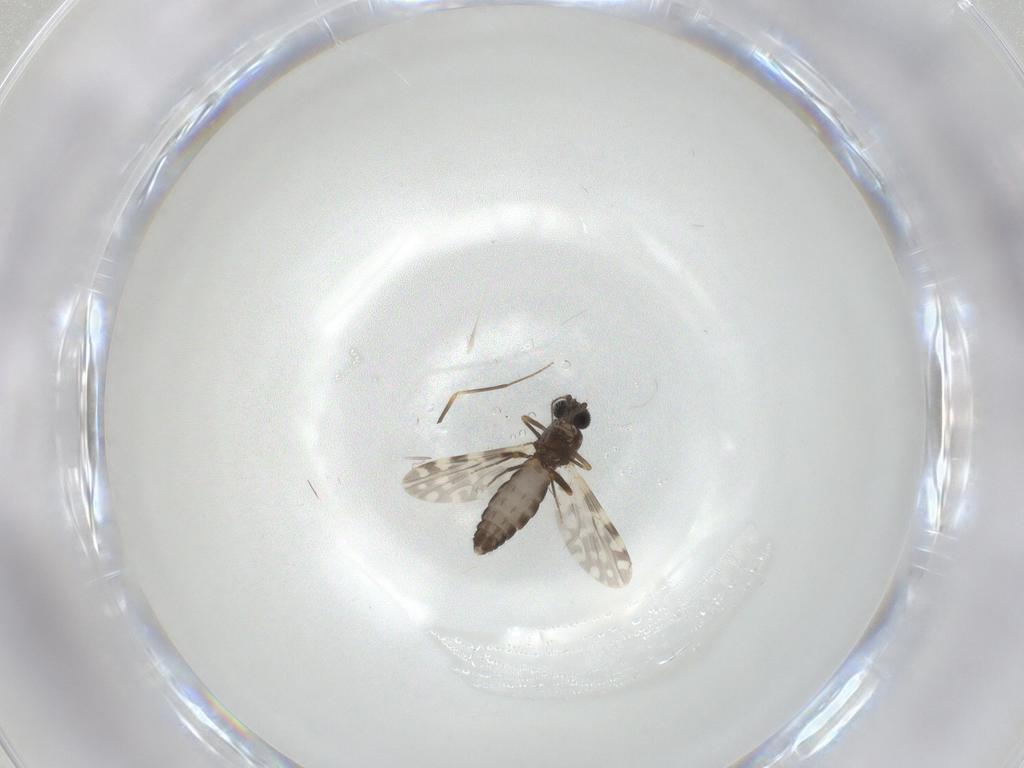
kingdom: Animalia
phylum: Arthropoda
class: Insecta
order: Diptera
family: Ceratopogonidae
